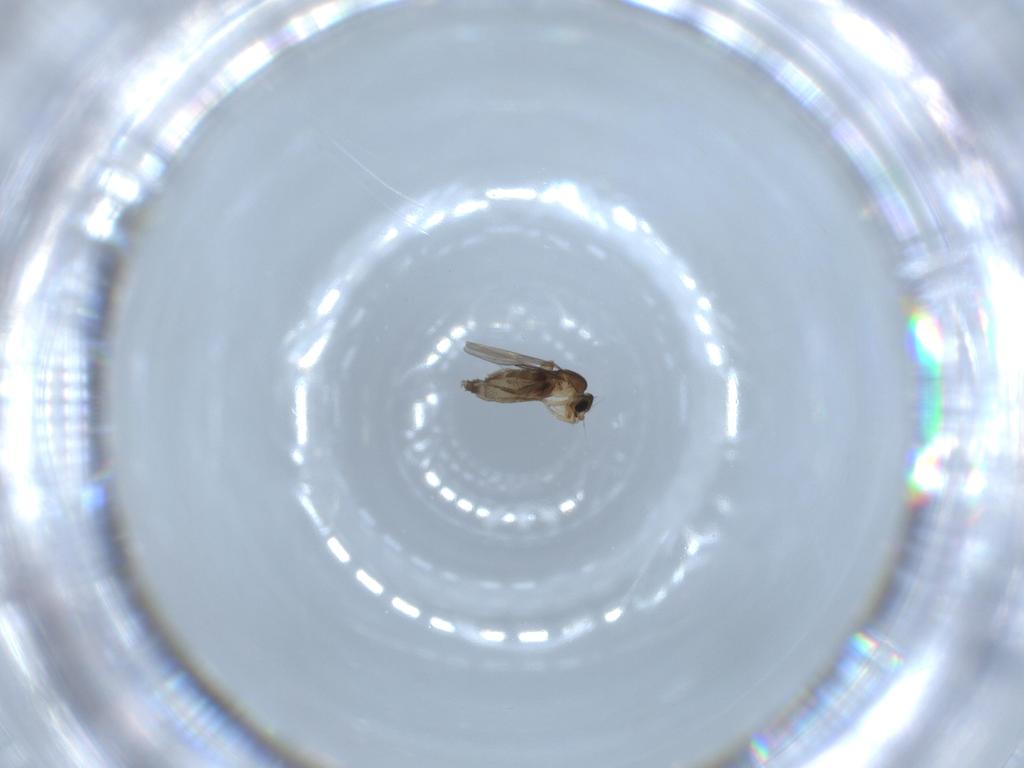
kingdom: Animalia
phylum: Arthropoda
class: Insecta
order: Diptera
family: Phoridae
